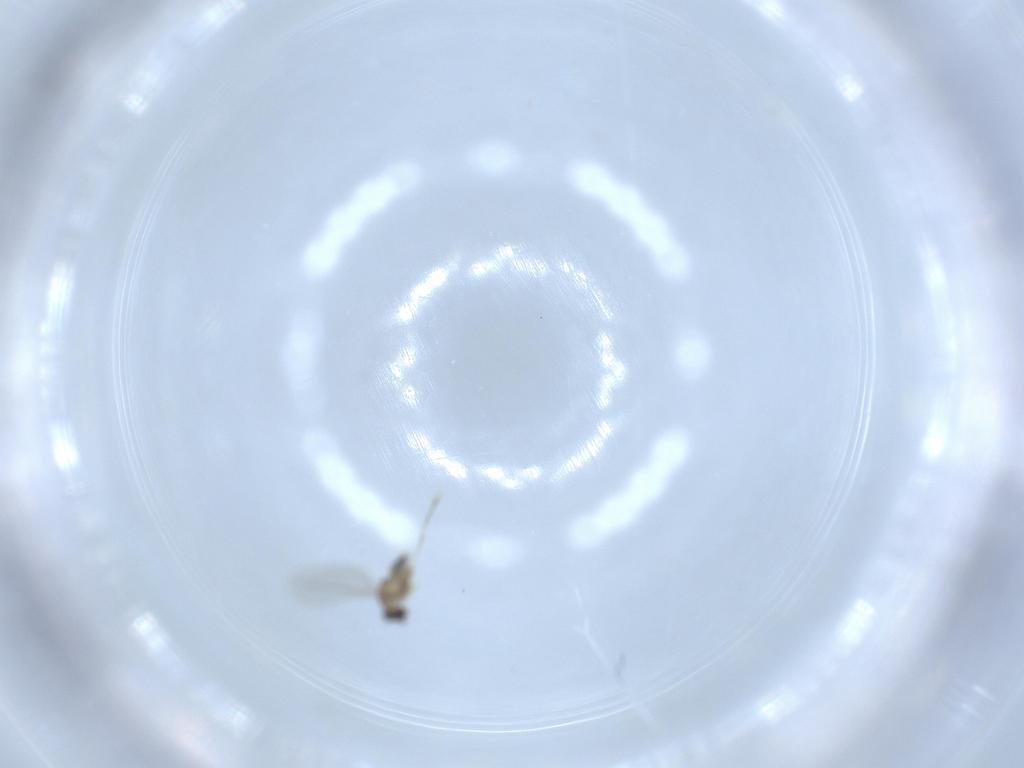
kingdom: Animalia
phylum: Arthropoda
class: Insecta
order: Diptera
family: Cecidomyiidae
